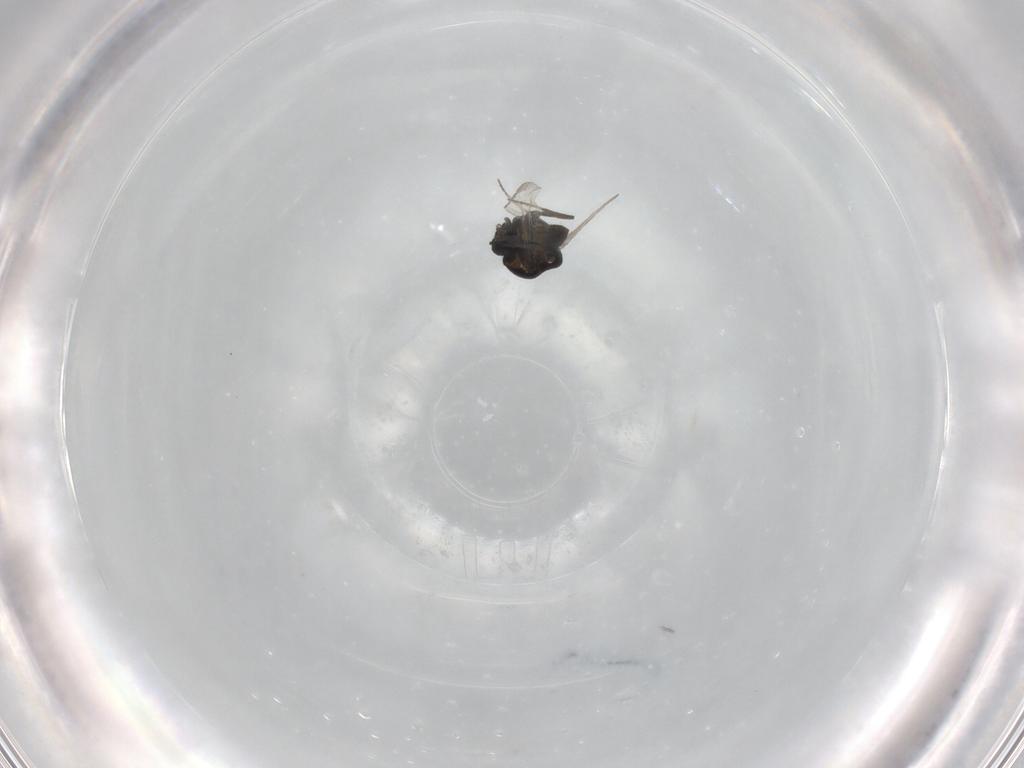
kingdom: Animalia
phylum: Arthropoda
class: Insecta
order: Diptera
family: Ceratopogonidae
